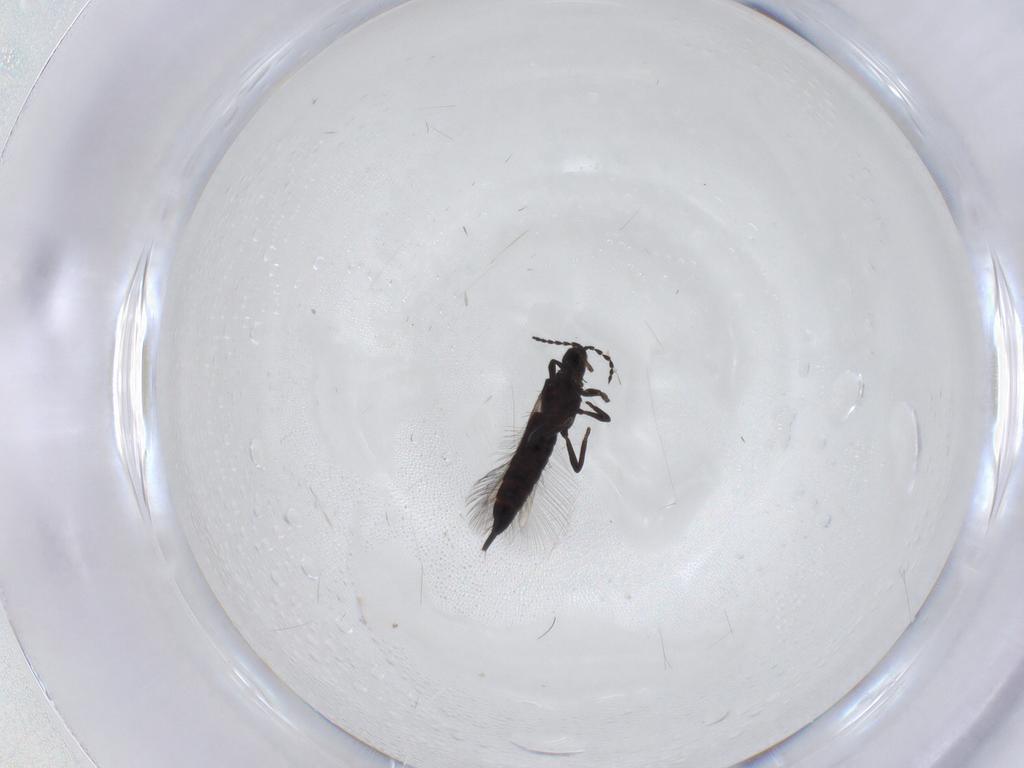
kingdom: Animalia
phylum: Arthropoda
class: Insecta
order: Thysanoptera
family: Phlaeothripidae
